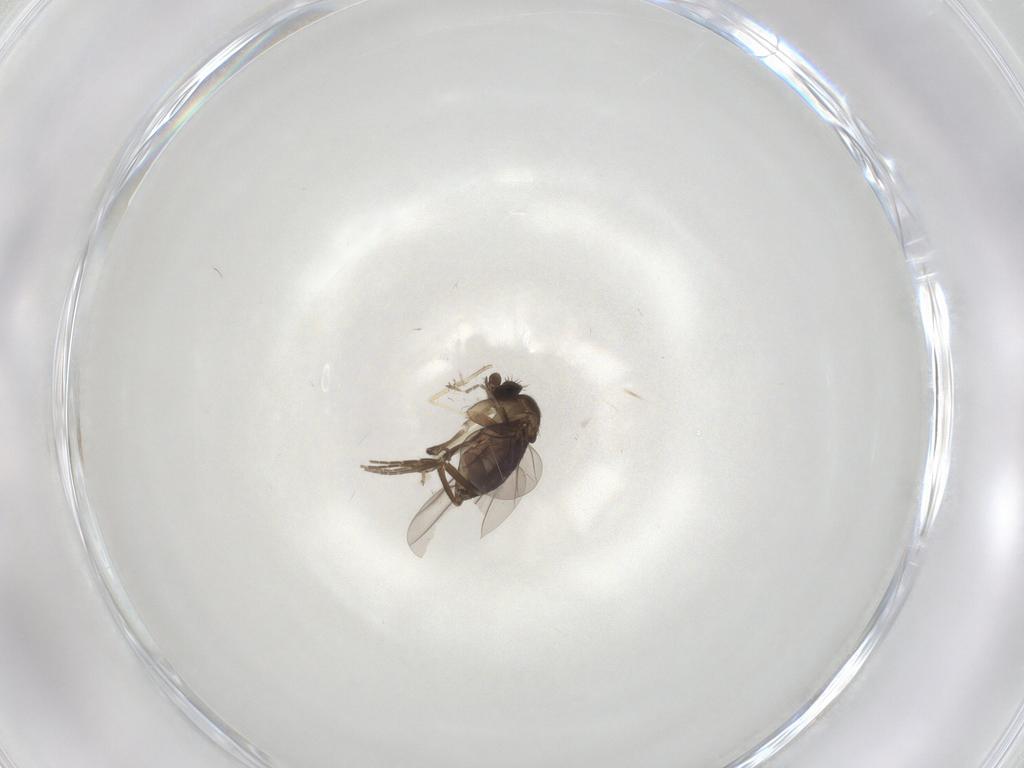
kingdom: Animalia
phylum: Arthropoda
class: Insecta
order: Diptera
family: Chironomidae
